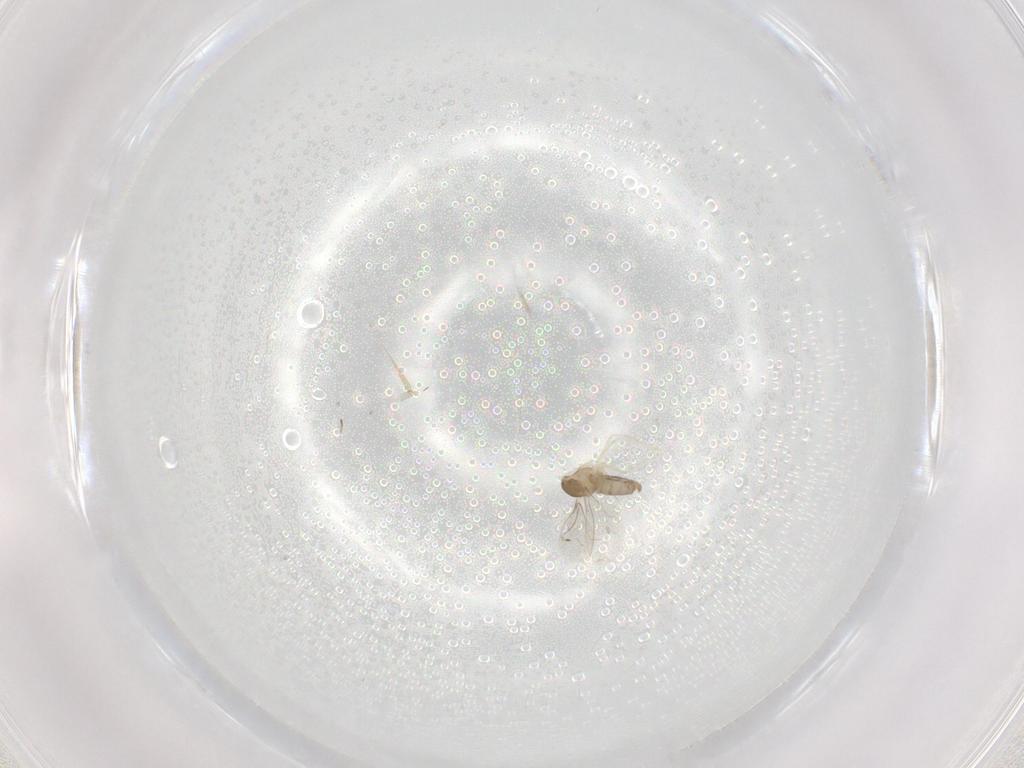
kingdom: Animalia
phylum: Arthropoda
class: Insecta
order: Diptera
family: Cecidomyiidae
